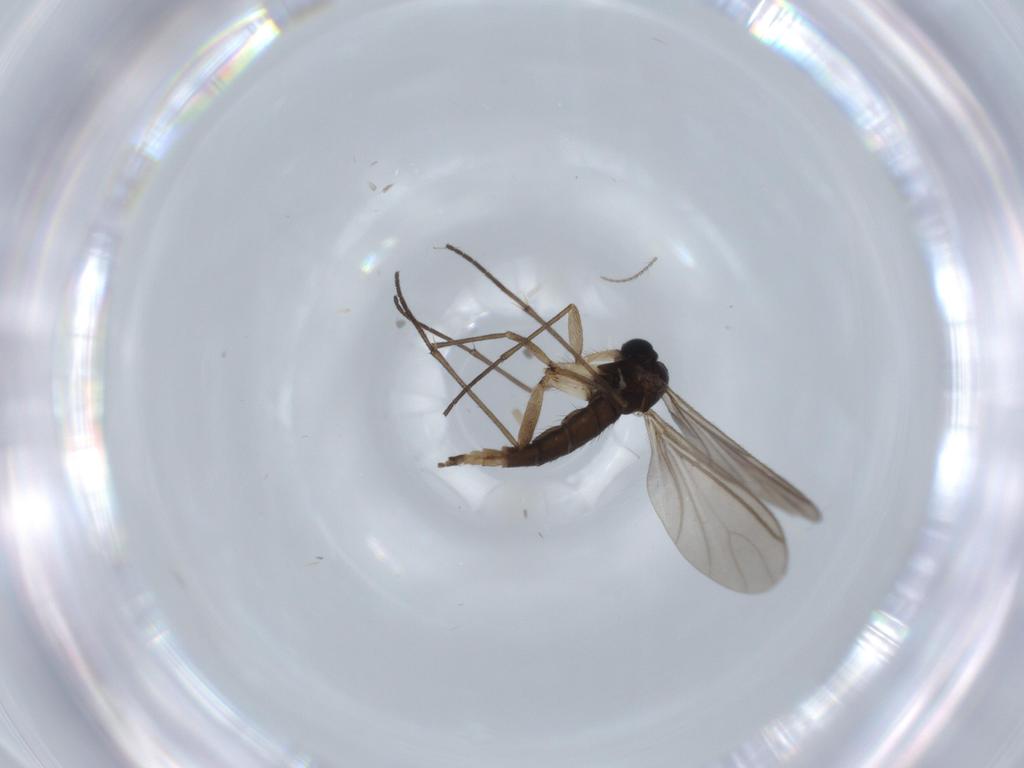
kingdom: Animalia
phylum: Arthropoda
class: Insecta
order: Diptera
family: Sciaridae
